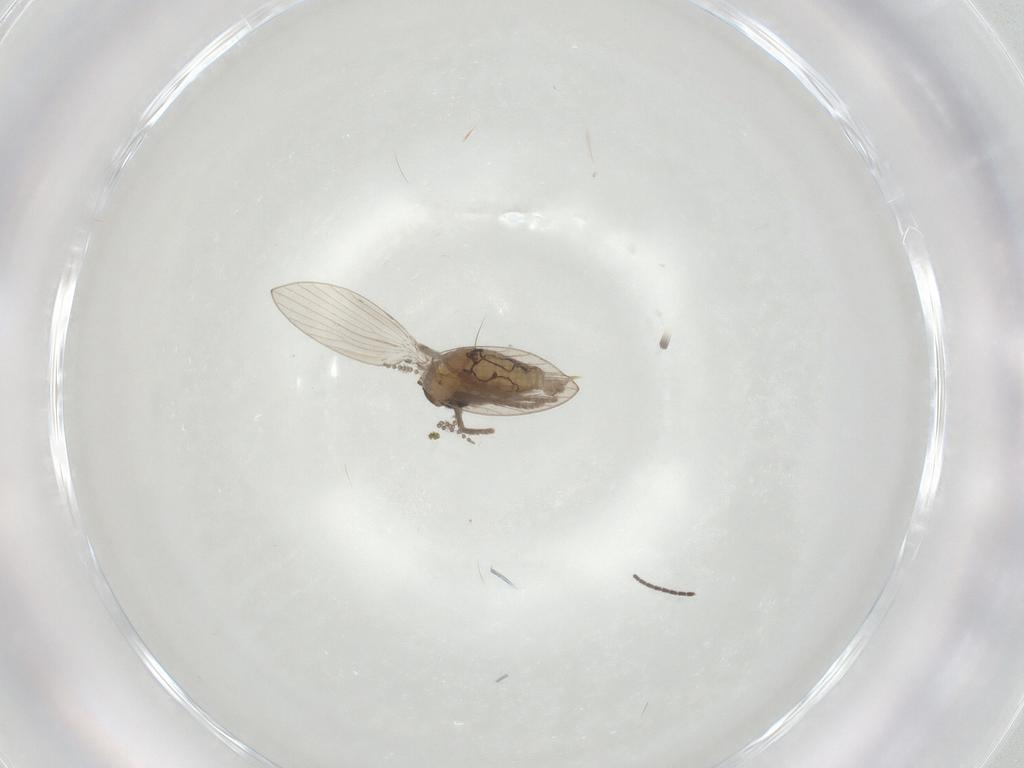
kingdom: Animalia
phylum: Arthropoda
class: Insecta
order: Diptera
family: Psychodidae
